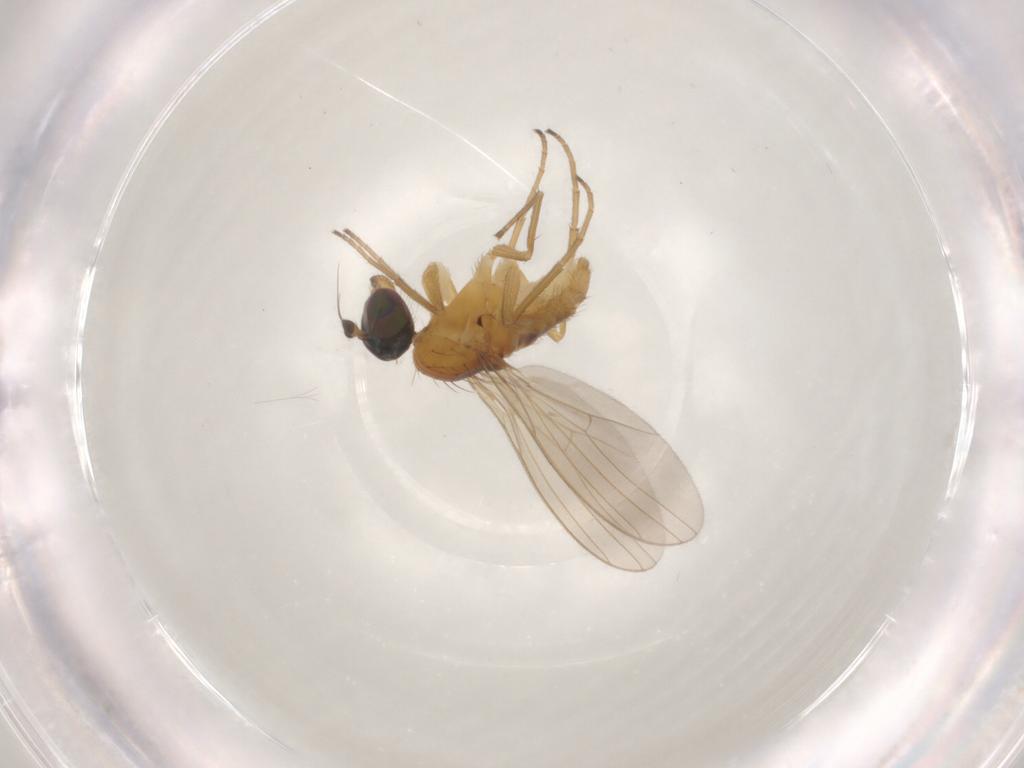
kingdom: Animalia
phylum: Arthropoda
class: Insecta
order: Diptera
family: Dolichopodidae
